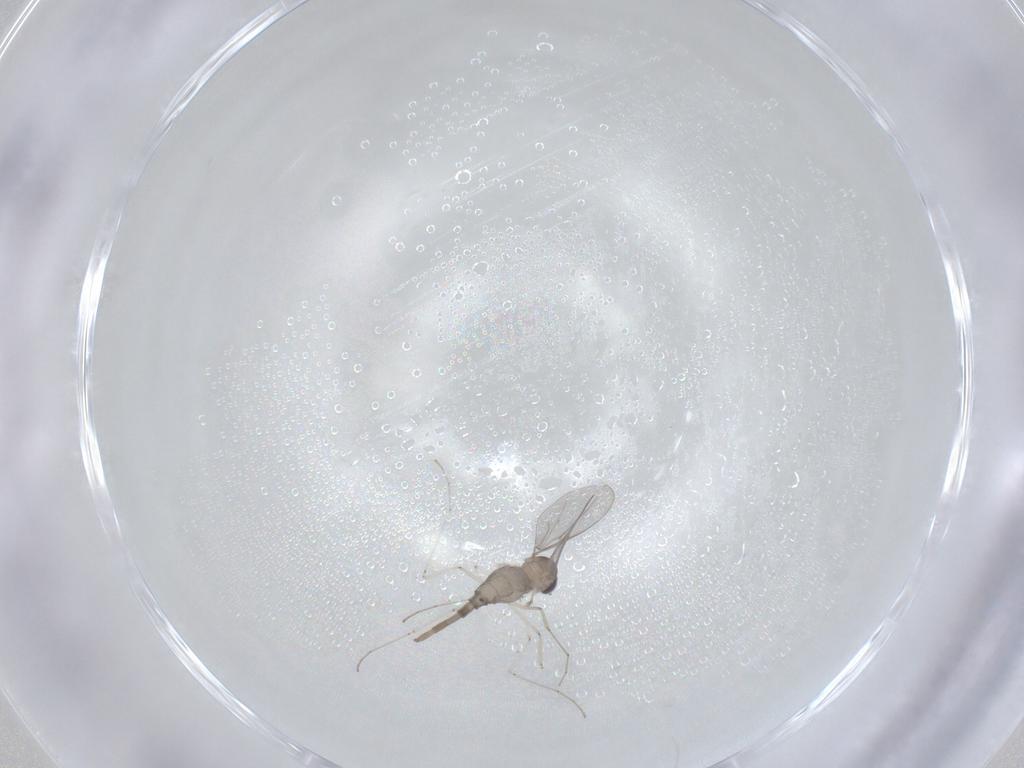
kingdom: Animalia
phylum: Arthropoda
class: Insecta
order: Diptera
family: Cecidomyiidae
